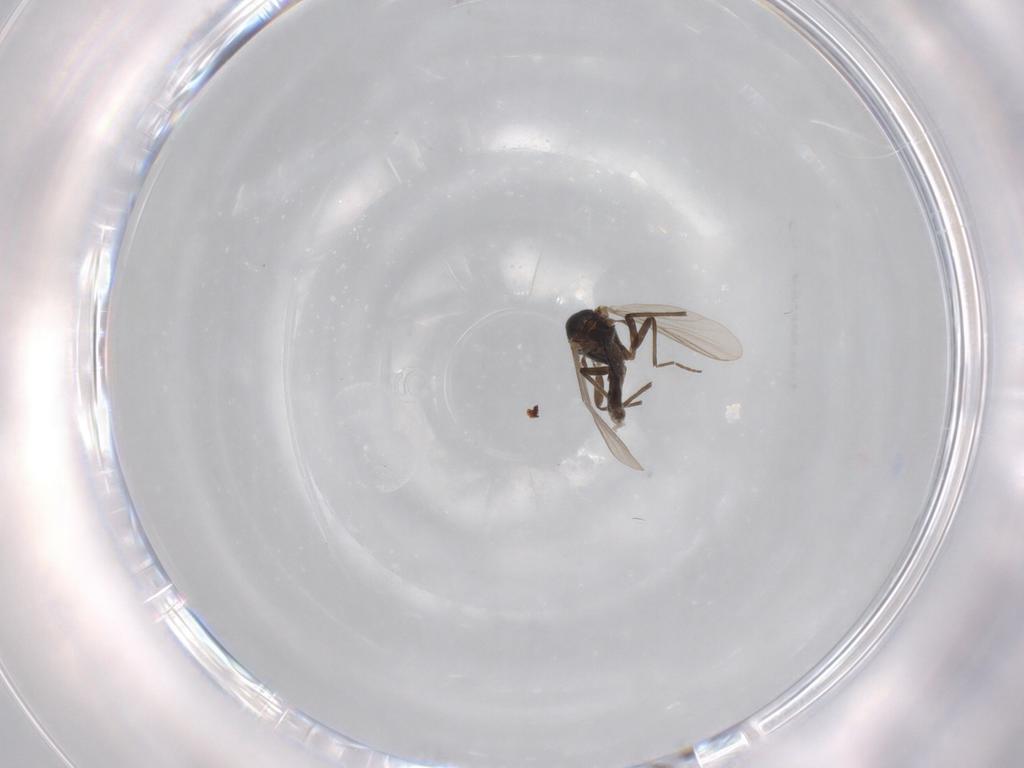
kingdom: Animalia
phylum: Arthropoda
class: Insecta
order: Diptera
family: Chironomidae
